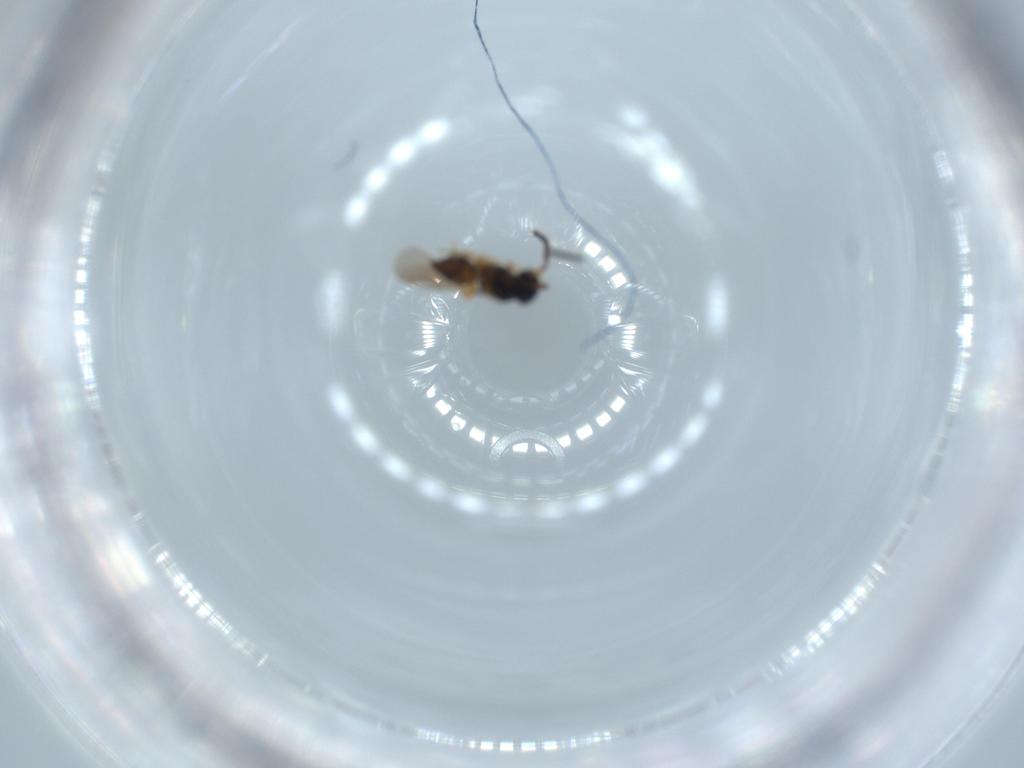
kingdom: Animalia
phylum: Arthropoda
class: Insecta
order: Hymenoptera
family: Ceraphronidae
